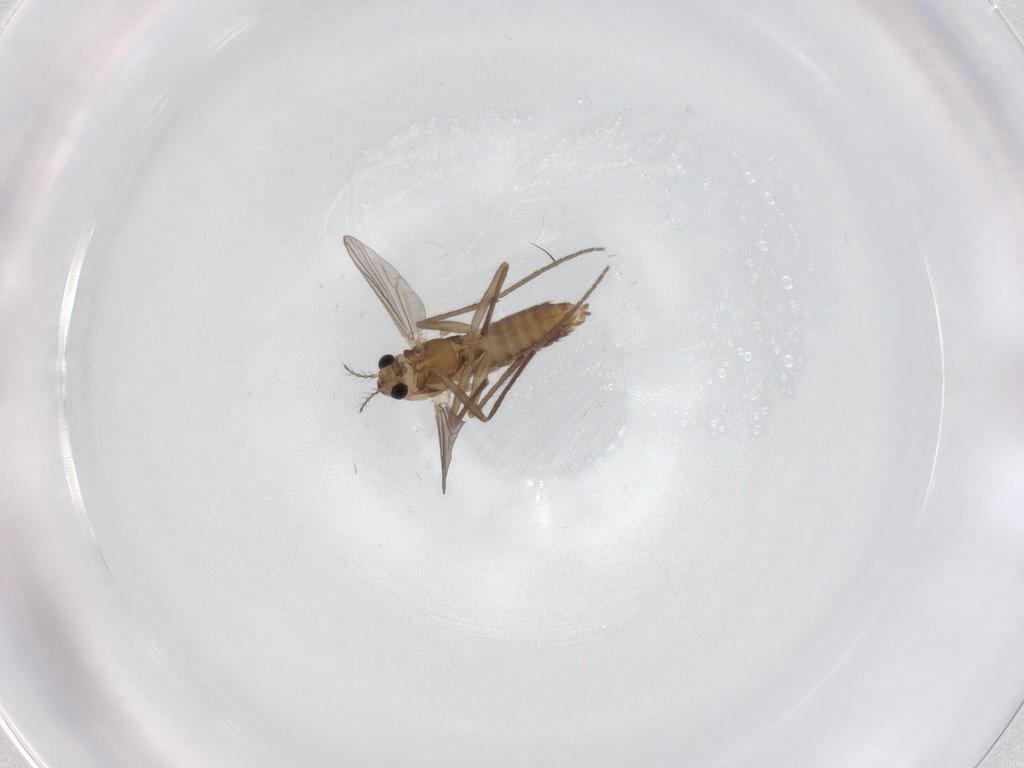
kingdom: Animalia
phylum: Arthropoda
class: Insecta
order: Diptera
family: Chironomidae
